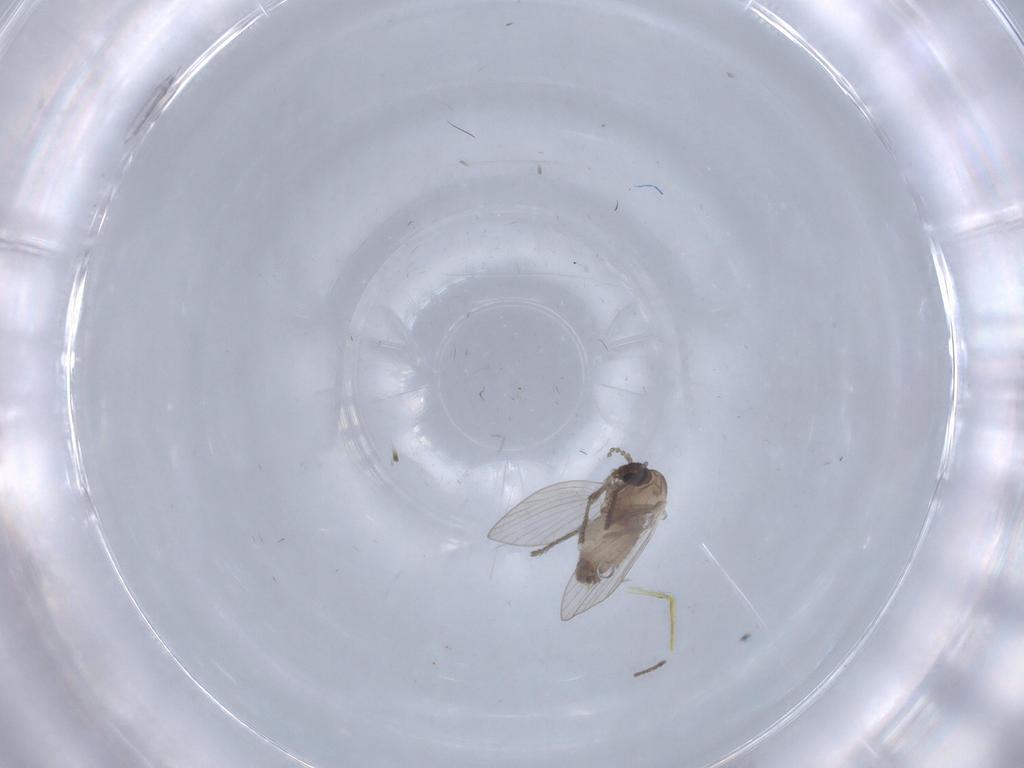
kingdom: Animalia
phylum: Arthropoda
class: Insecta
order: Diptera
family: Psychodidae
